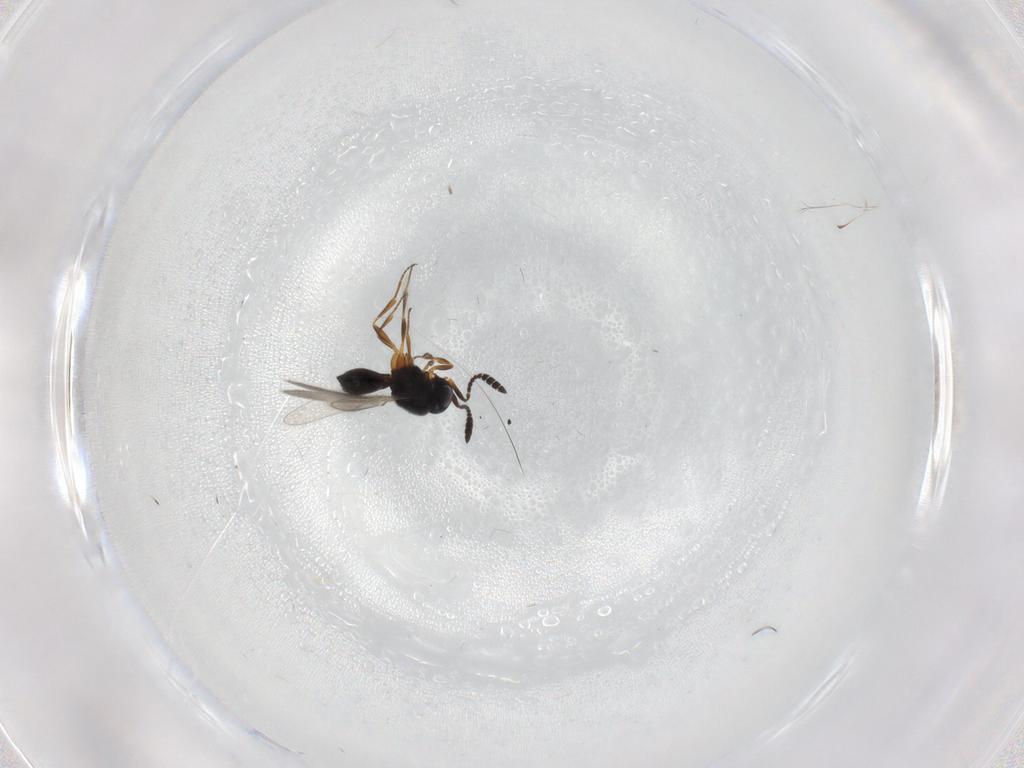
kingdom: Animalia
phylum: Arthropoda
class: Insecta
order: Hymenoptera
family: Scelionidae
